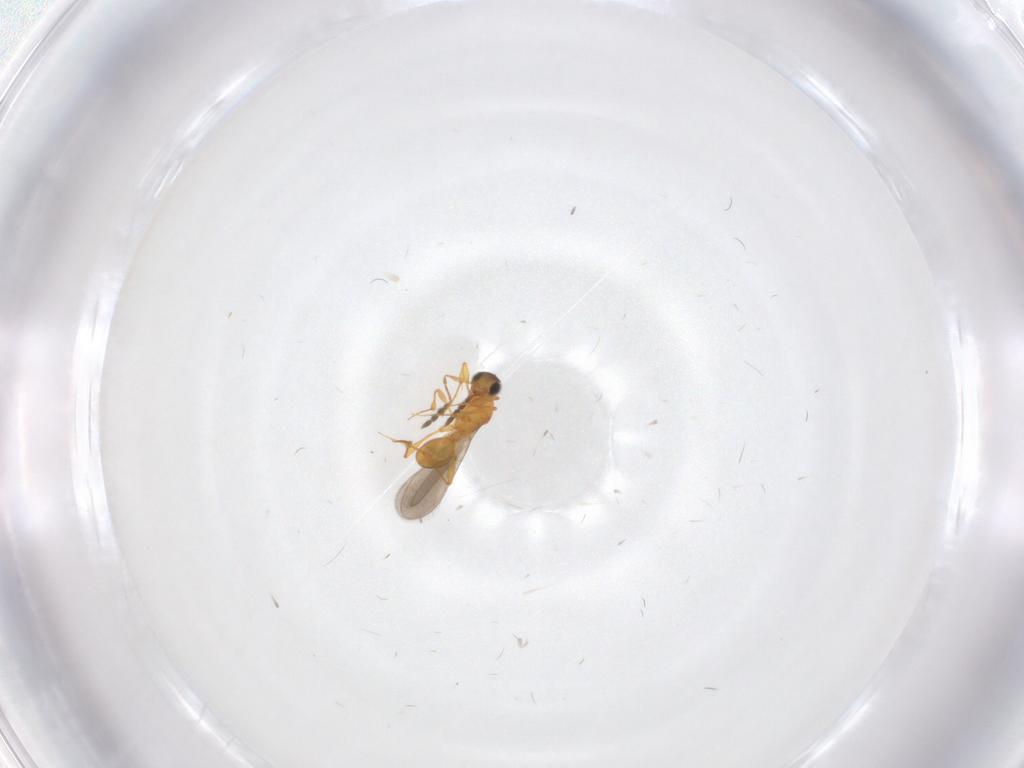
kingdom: Animalia
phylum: Arthropoda
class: Insecta
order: Hymenoptera
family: Platygastridae
